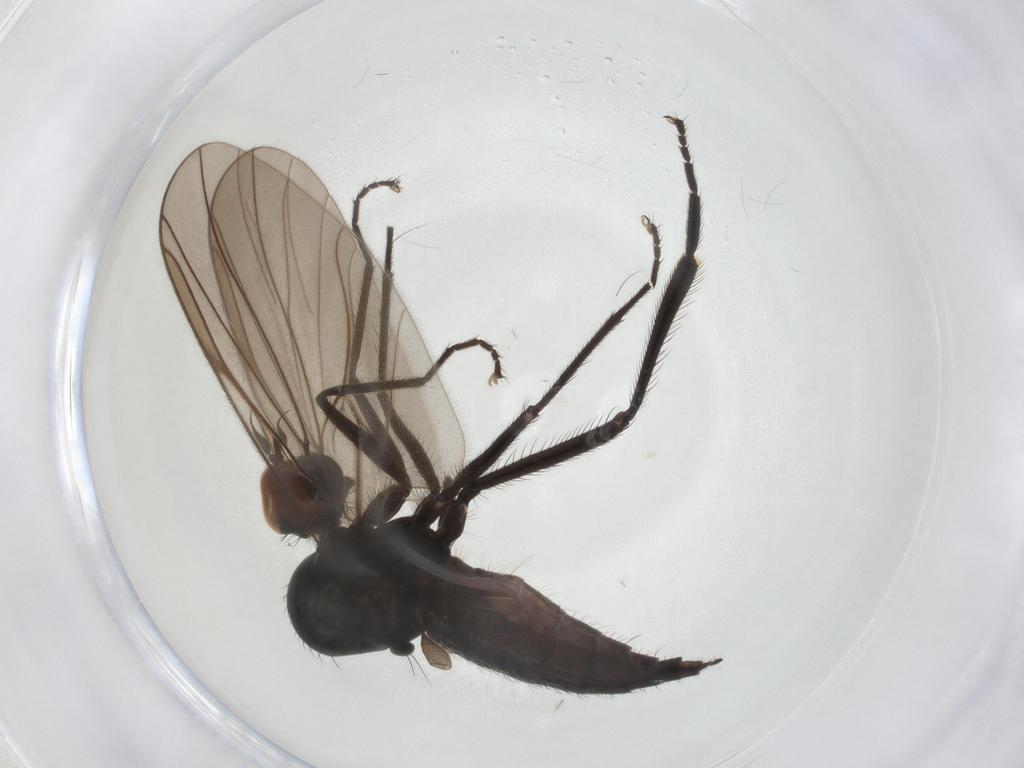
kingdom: Animalia
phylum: Arthropoda
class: Insecta
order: Diptera
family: Hybotidae
